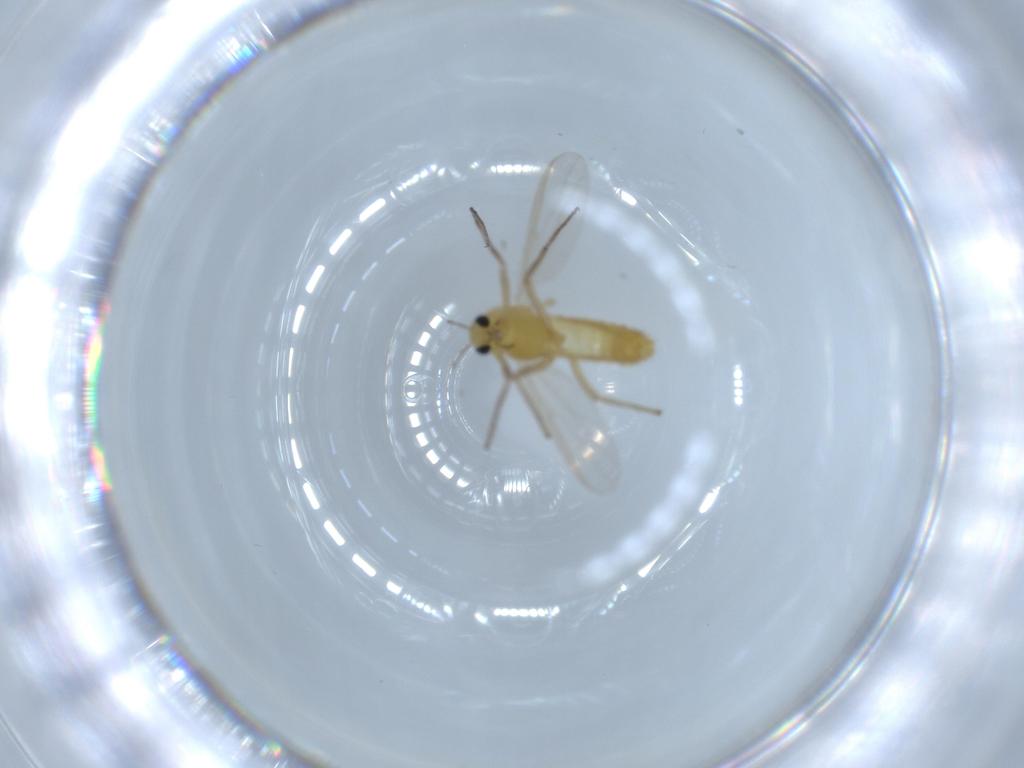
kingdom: Animalia
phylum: Arthropoda
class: Insecta
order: Diptera
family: Chironomidae
